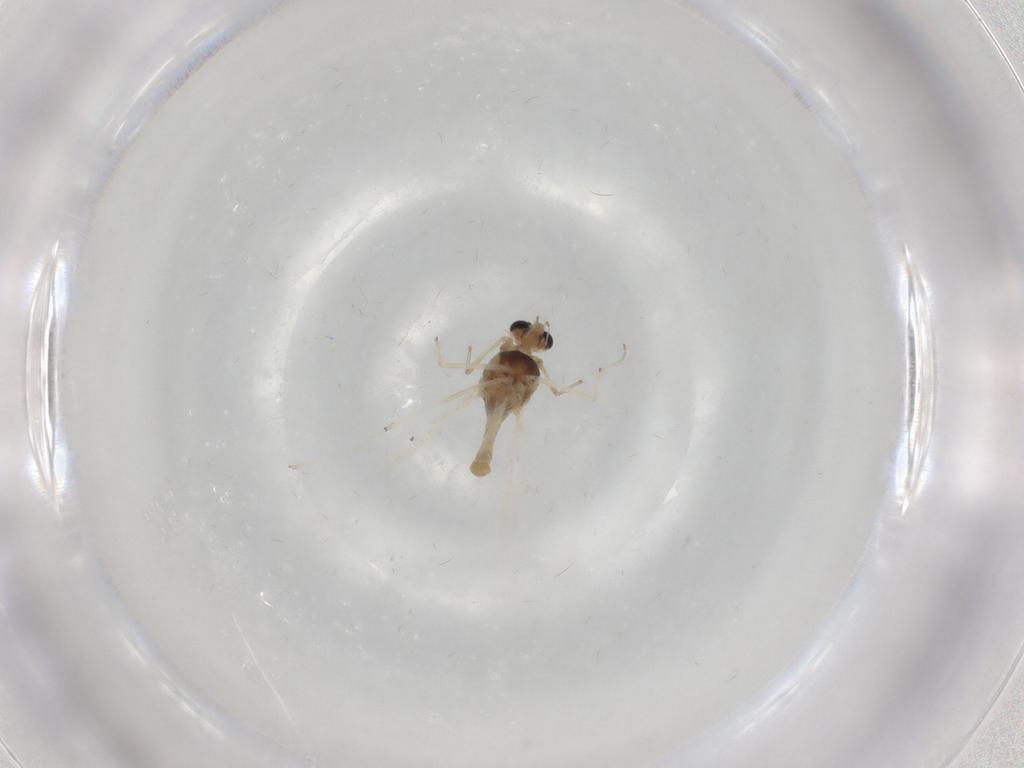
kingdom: Animalia
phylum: Arthropoda
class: Insecta
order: Diptera
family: Chironomidae
